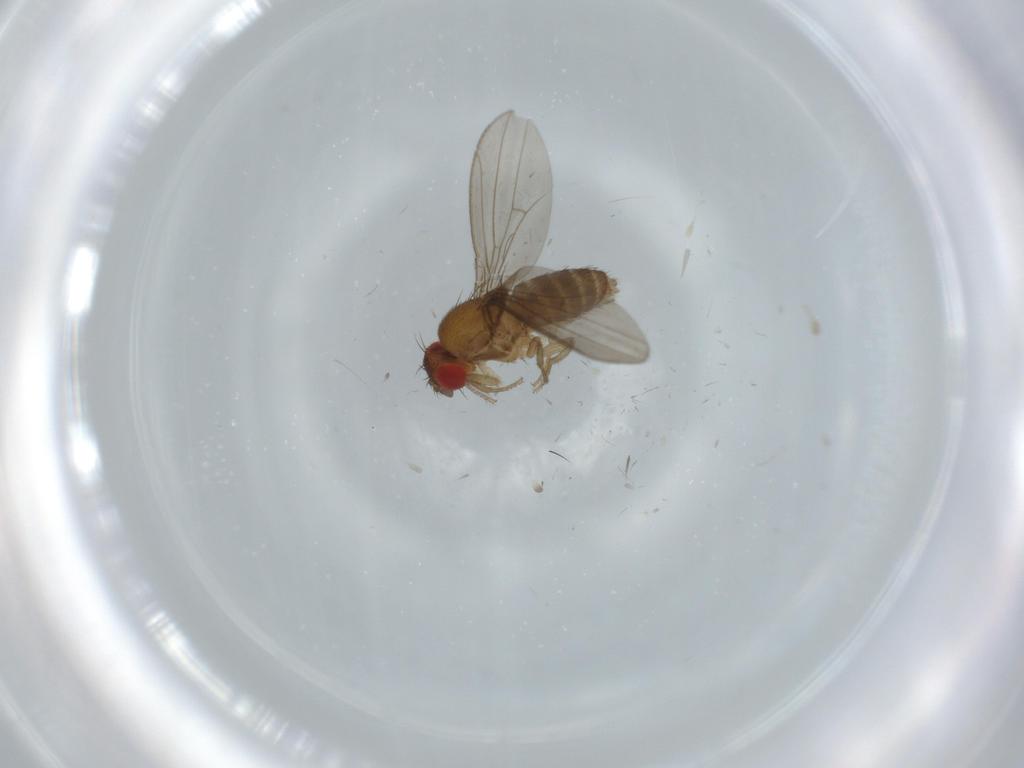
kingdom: Animalia
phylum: Arthropoda
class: Insecta
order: Diptera
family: Drosophilidae
